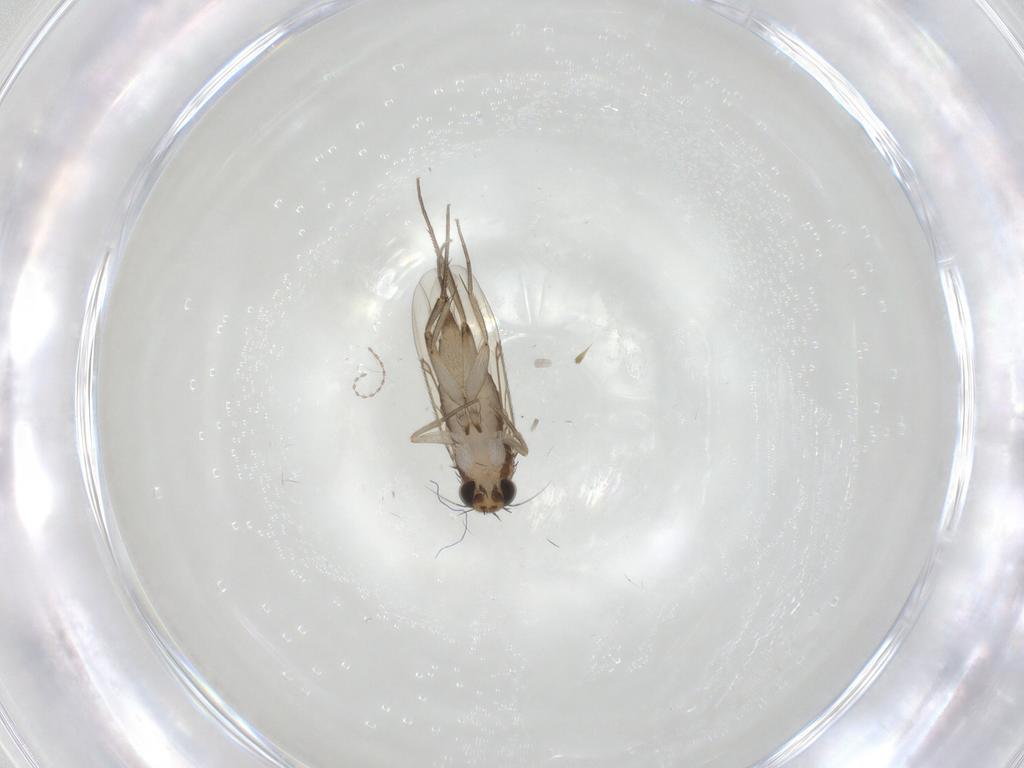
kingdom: Animalia
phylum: Arthropoda
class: Insecta
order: Diptera
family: Phoridae
